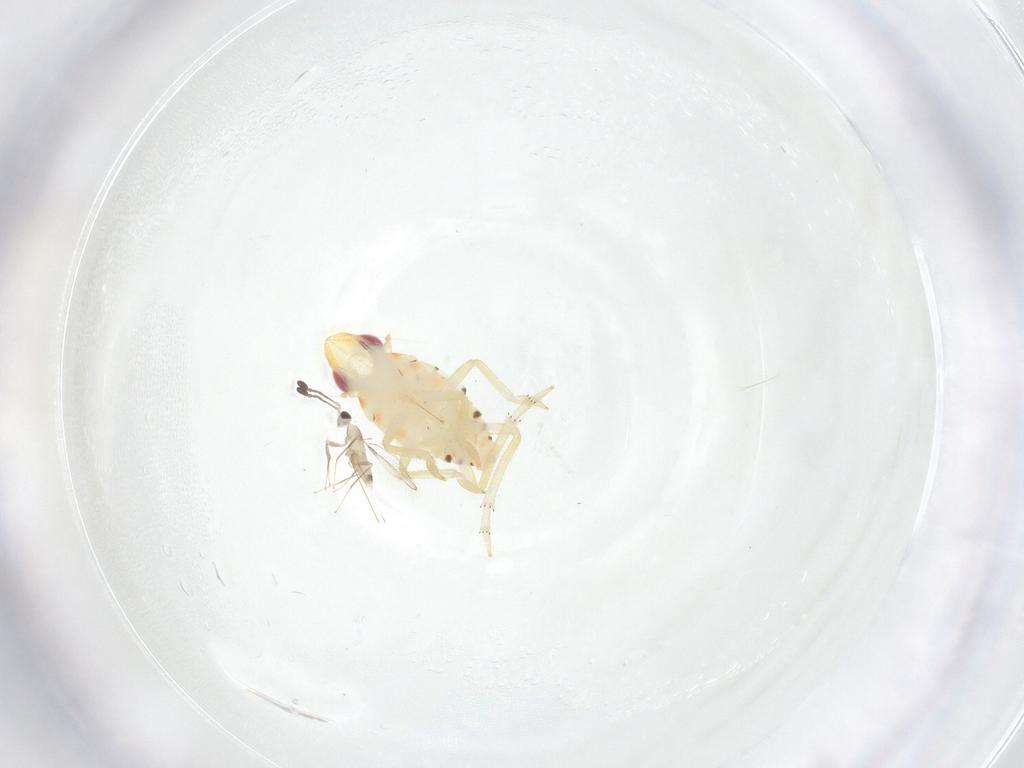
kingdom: Animalia
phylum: Arthropoda
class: Insecta
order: Hemiptera
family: Tropiduchidae
